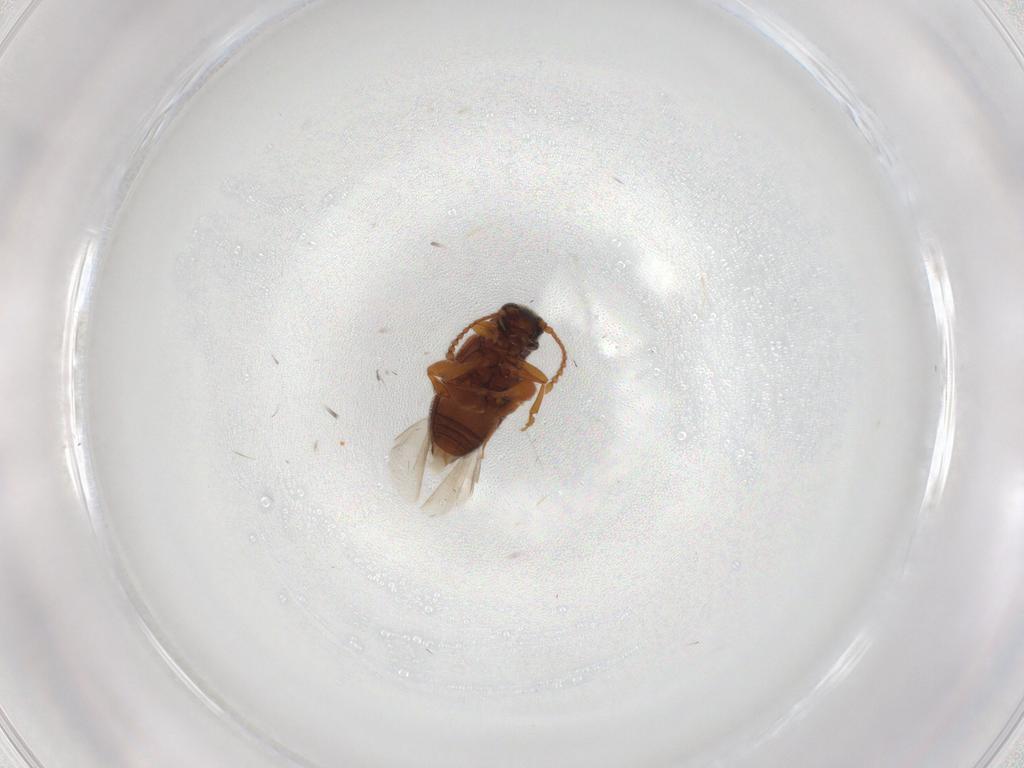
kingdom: Animalia
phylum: Arthropoda
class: Insecta
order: Coleoptera
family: Aderidae
